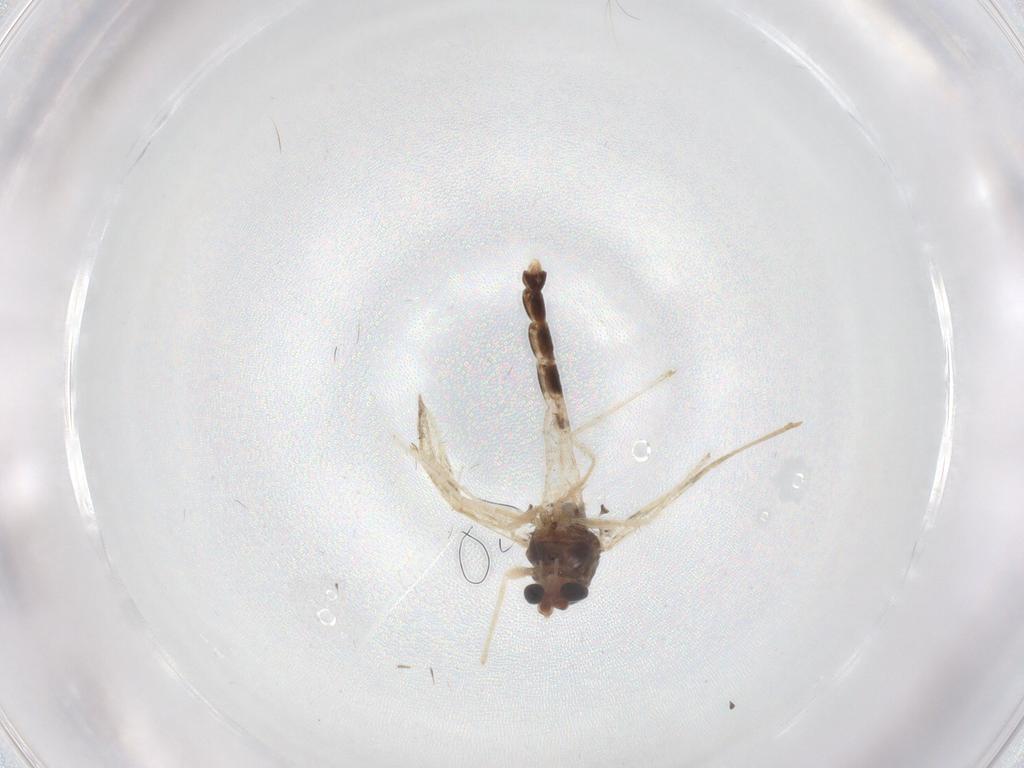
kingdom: Animalia
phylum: Arthropoda
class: Insecta
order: Diptera
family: Chironomidae
